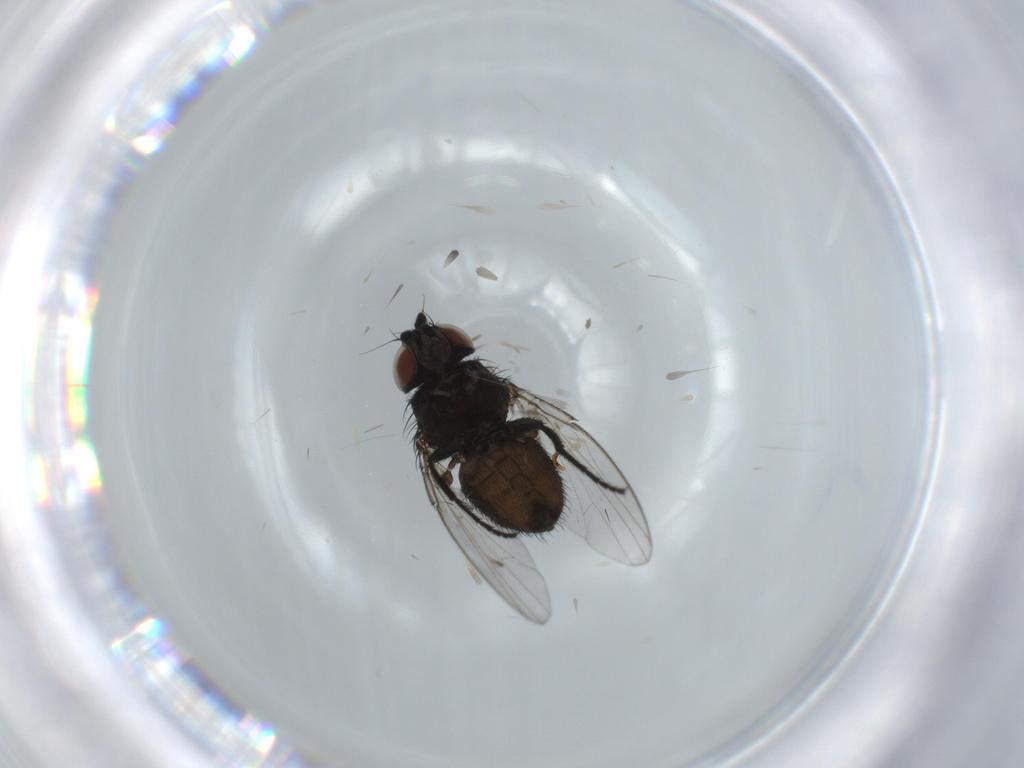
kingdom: Animalia
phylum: Arthropoda
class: Insecta
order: Diptera
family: Milichiidae
